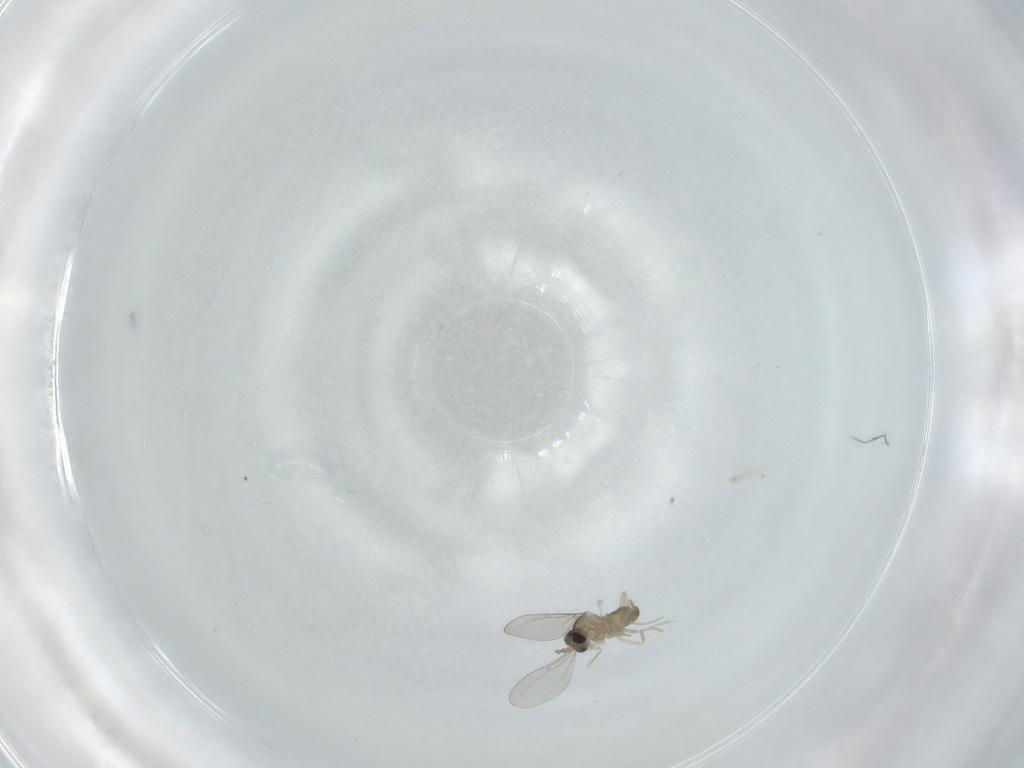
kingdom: Animalia
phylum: Arthropoda
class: Insecta
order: Diptera
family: Cecidomyiidae
